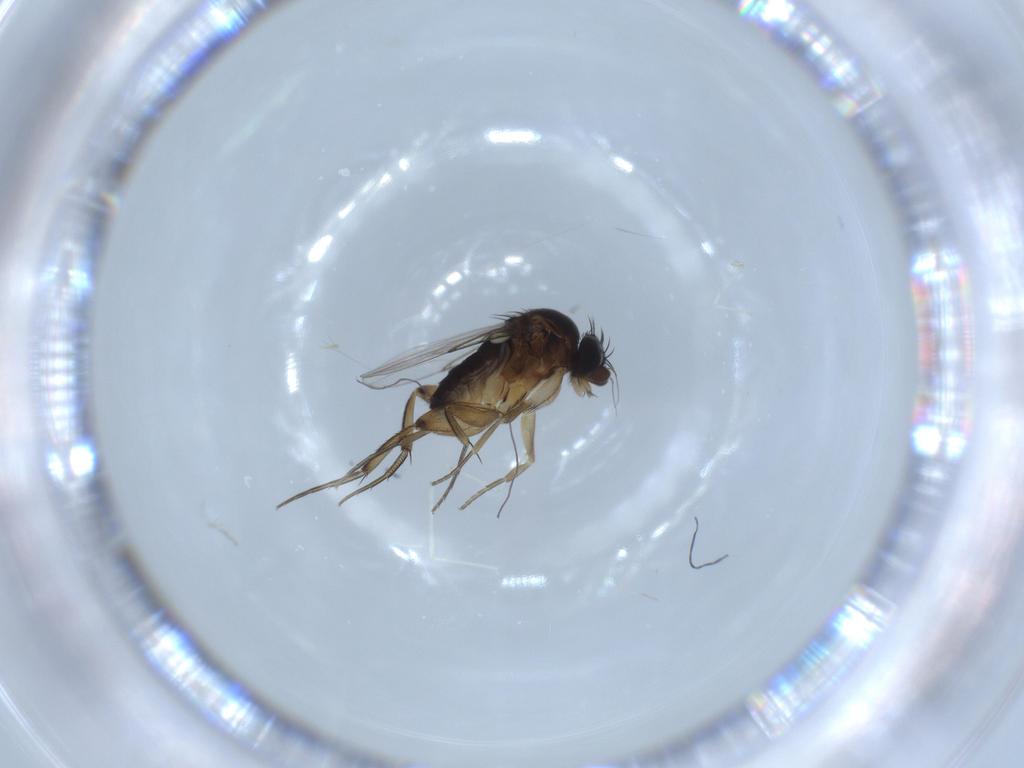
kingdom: Animalia
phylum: Arthropoda
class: Insecta
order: Diptera
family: Phoridae
